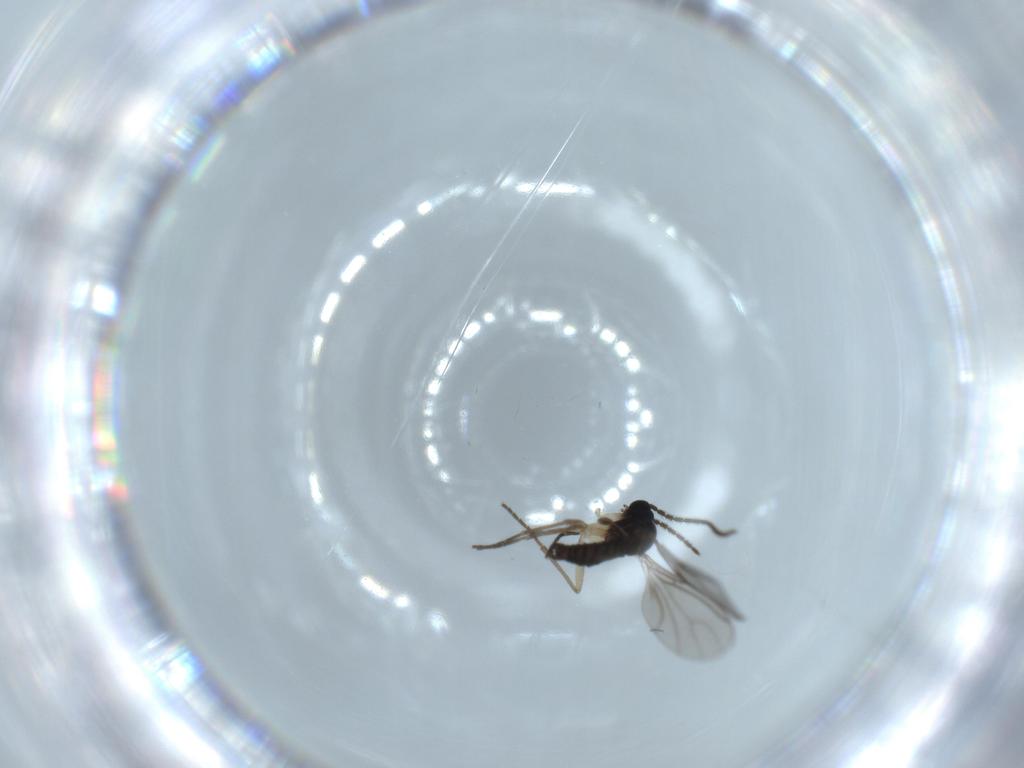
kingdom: Animalia
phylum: Arthropoda
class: Insecta
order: Diptera
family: Sciaridae
